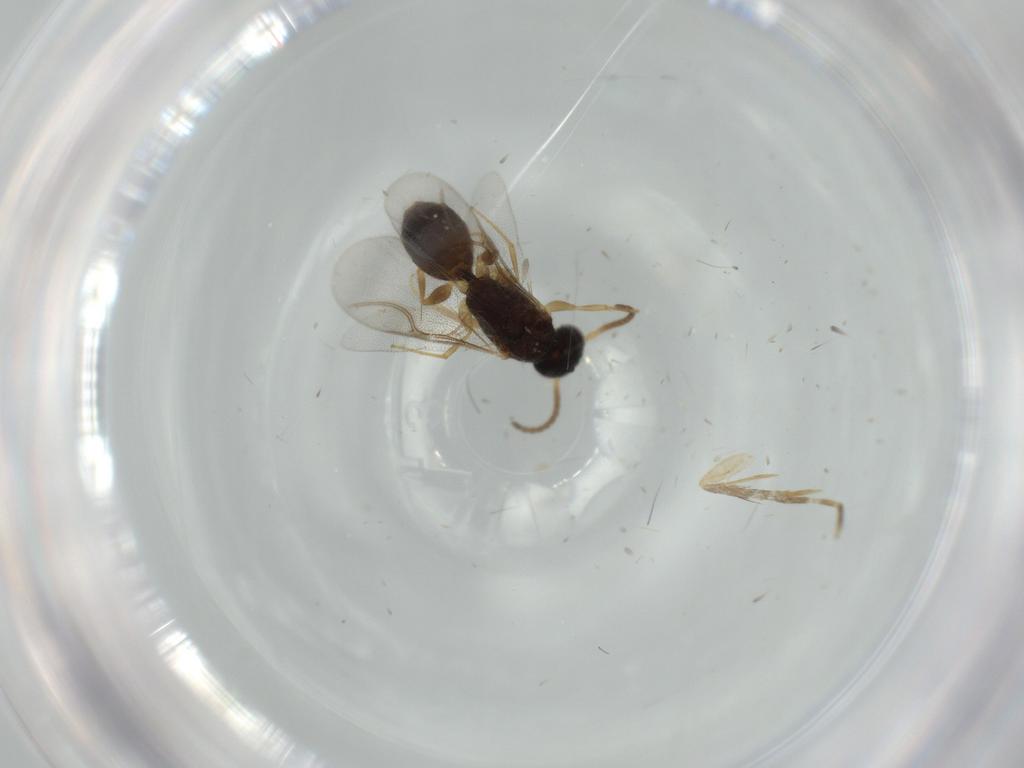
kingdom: Animalia
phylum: Arthropoda
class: Insecta
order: Hymenoptera
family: Bethylidae
